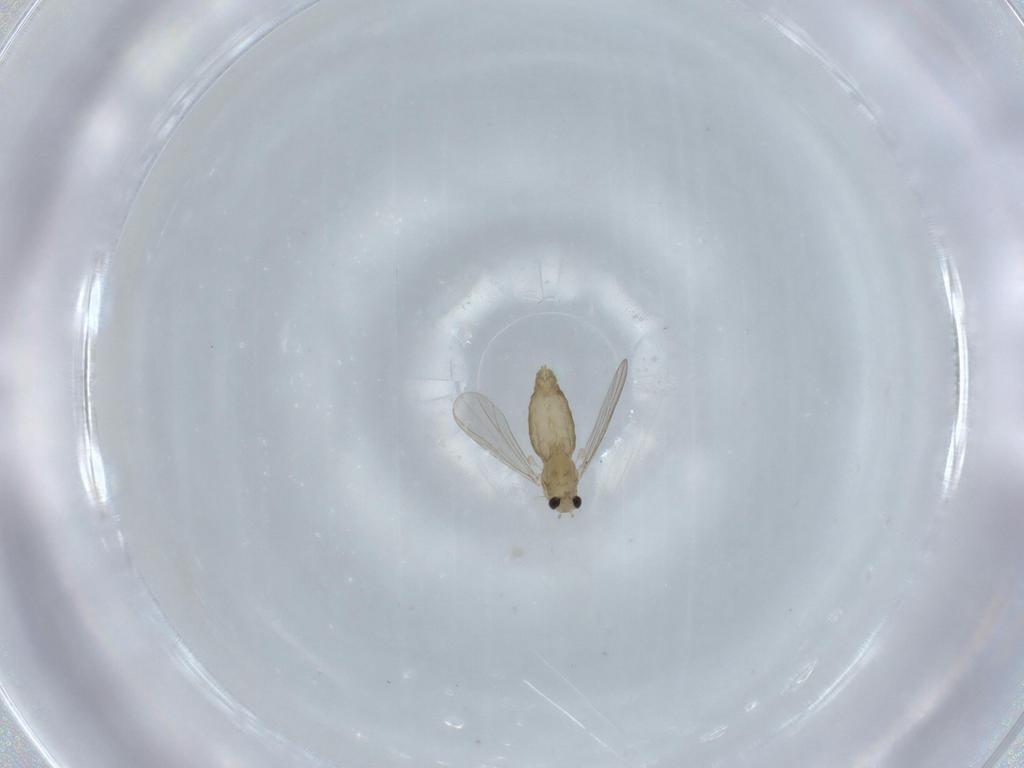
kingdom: Animalia
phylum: Arthropoda
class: Insecta
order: Diptera
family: Chironomidae
